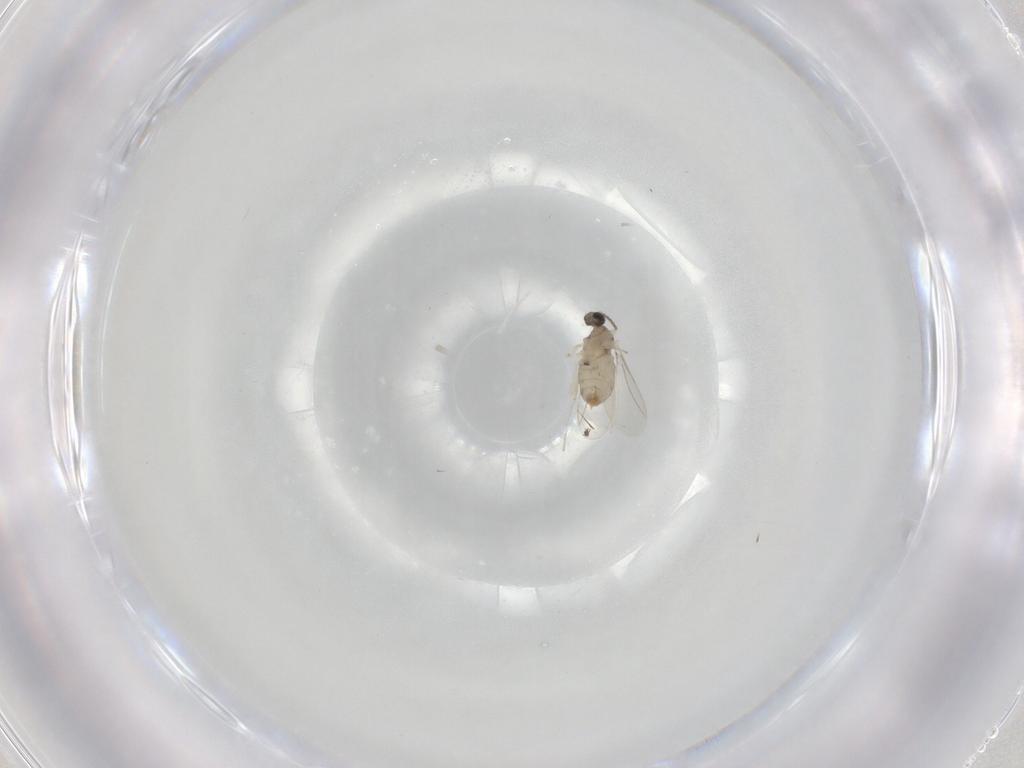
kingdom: Animalia
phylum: Arthropoda
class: Insecta
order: Diptera
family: Cecidomyiidae
